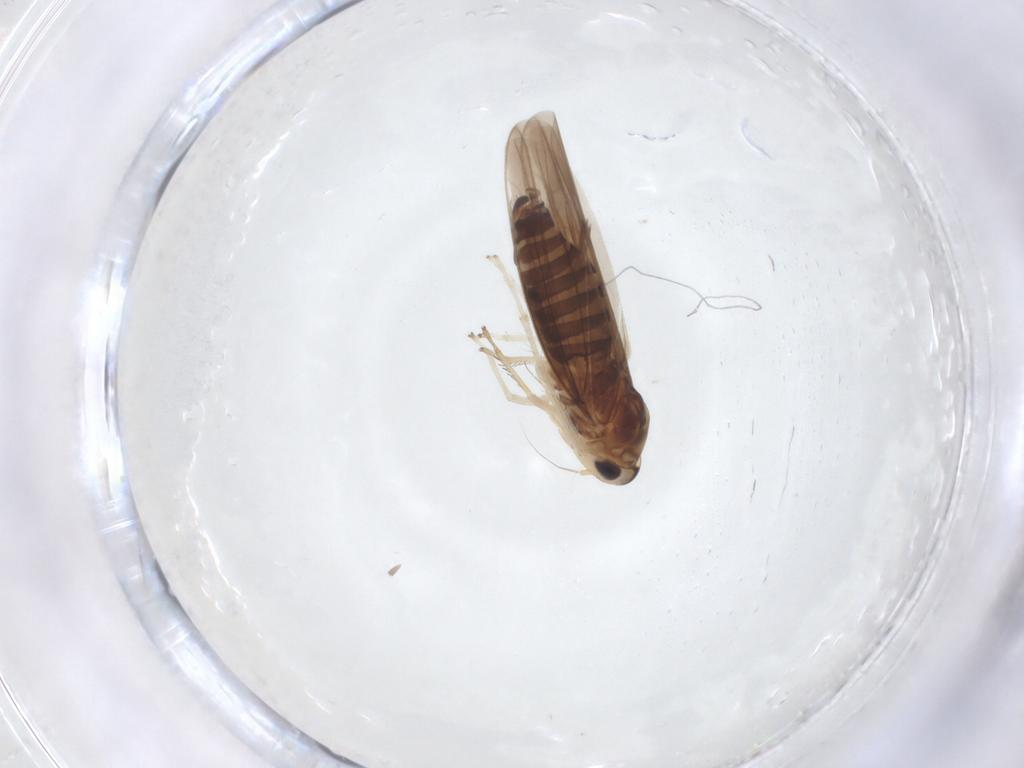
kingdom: Animalia
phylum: Arthropoda
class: Insecta
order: Hemiptera
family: Cicadellidae
